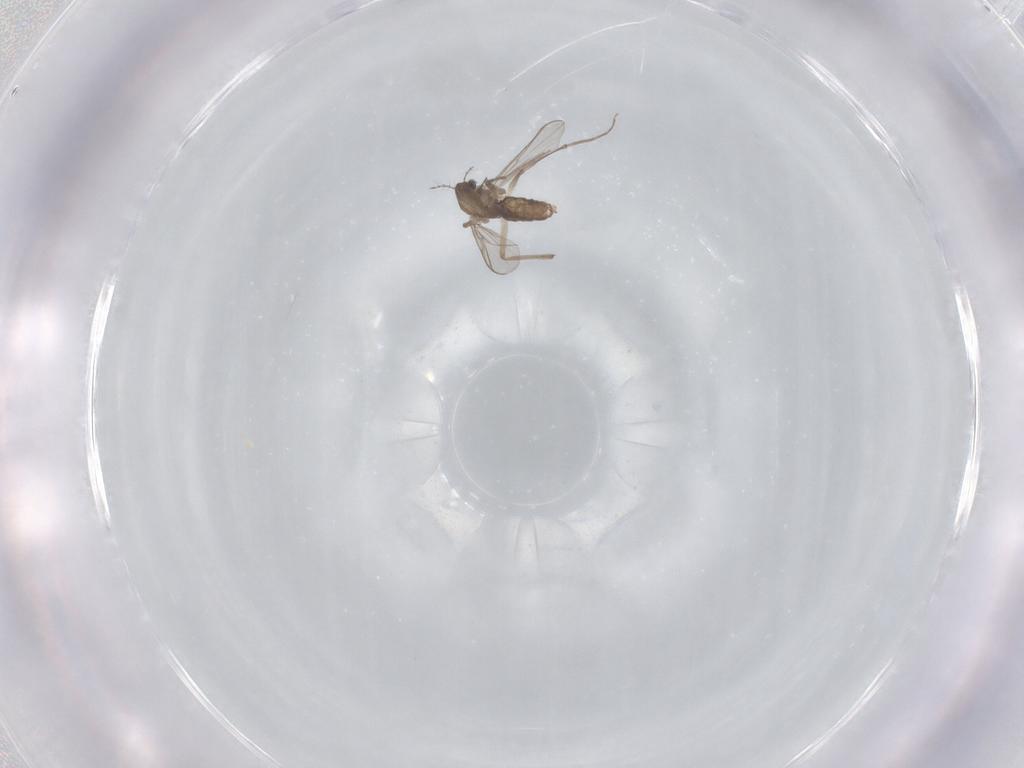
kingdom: Animalia
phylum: Arthropoda
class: Insecta
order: Diptera
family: Chironomidae
